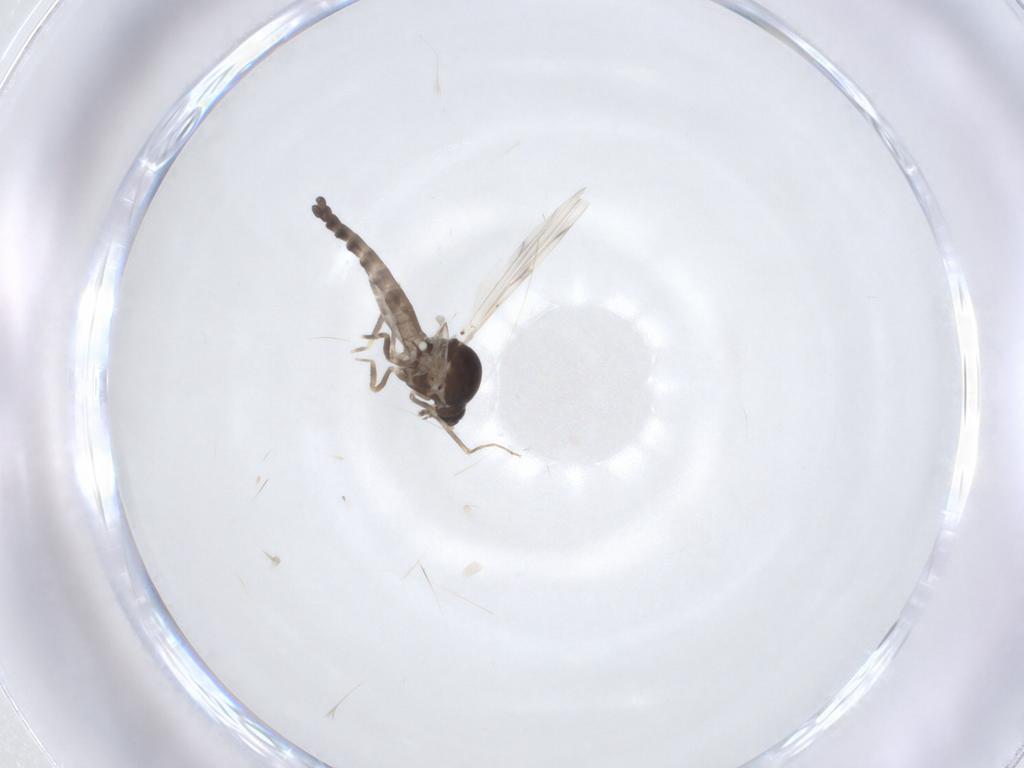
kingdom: Animalia
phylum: Arthropoda
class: Insecta
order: Diptera
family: Ceratopogonidae
